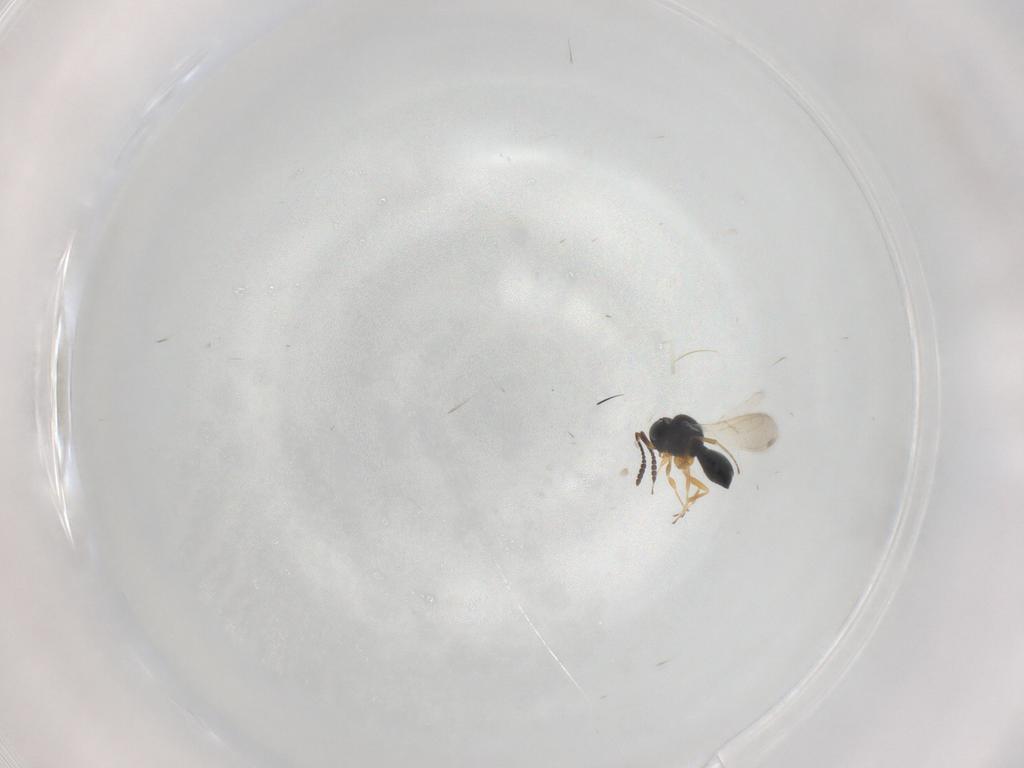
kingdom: Animalia
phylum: Arthropoda
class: Insecta
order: Hymenoptera
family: Scelionidae
